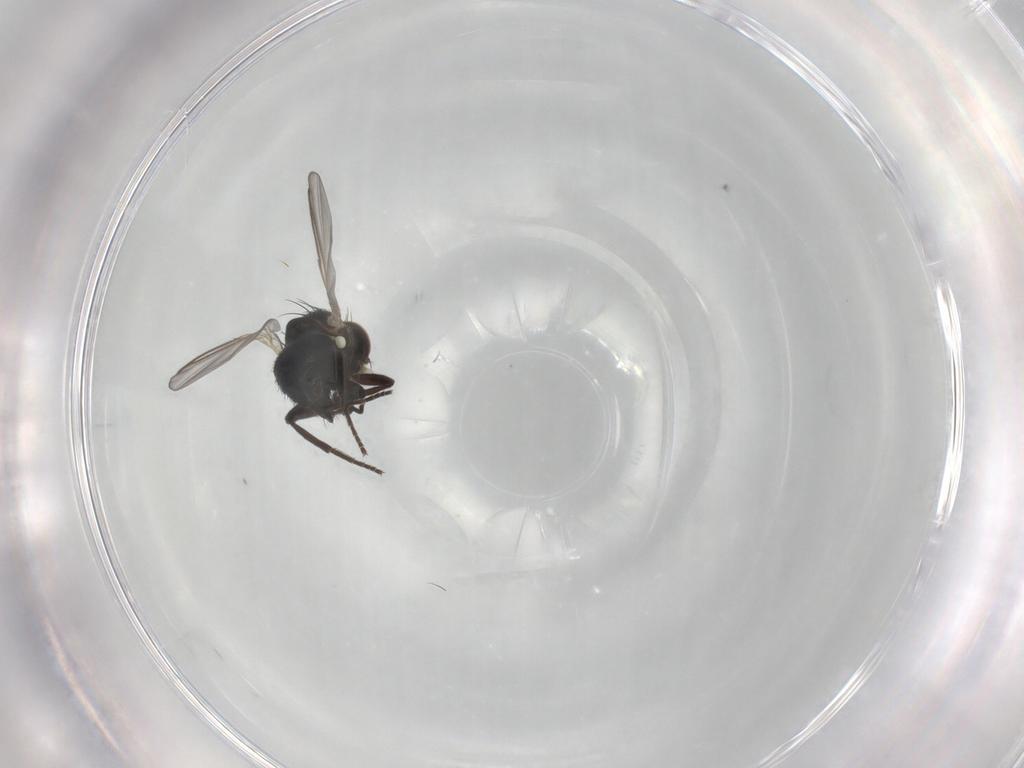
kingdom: Animalia
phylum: Arthropoda
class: Insecta
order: Diptera
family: Agromyzidae
